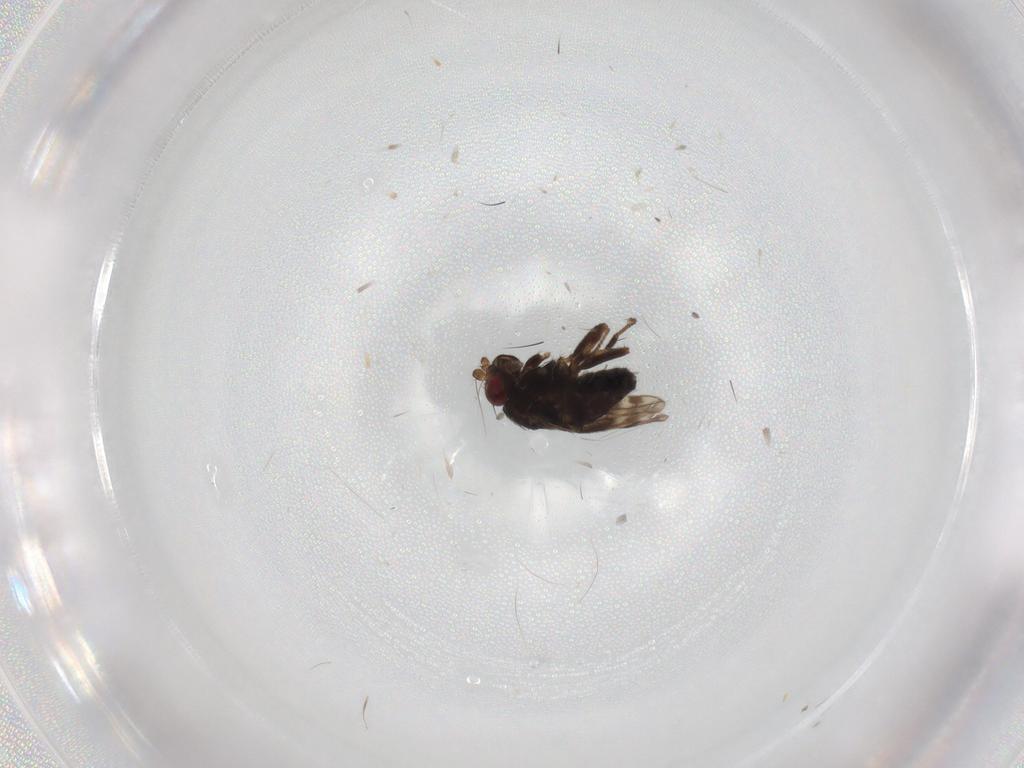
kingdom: Animalia
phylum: Arthropoda
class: Insecta
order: Diptera
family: Sphaeroceridae
